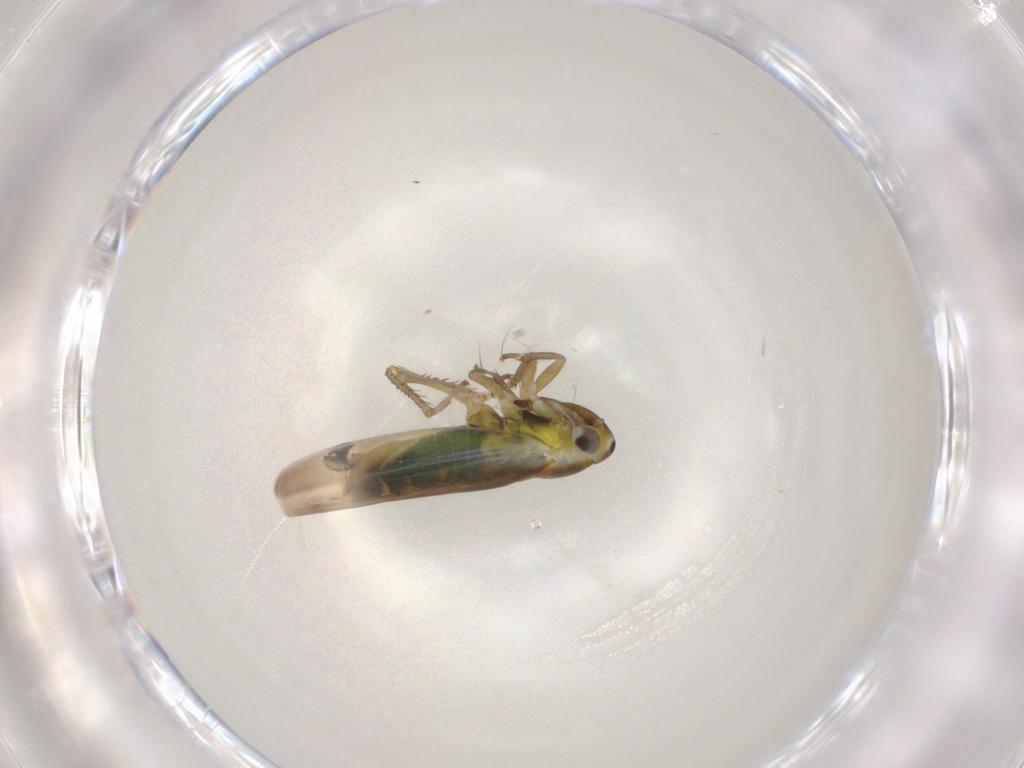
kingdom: Animalia
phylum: Arthropoda
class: Insecta
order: Hemiptera
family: Cicadellidae
